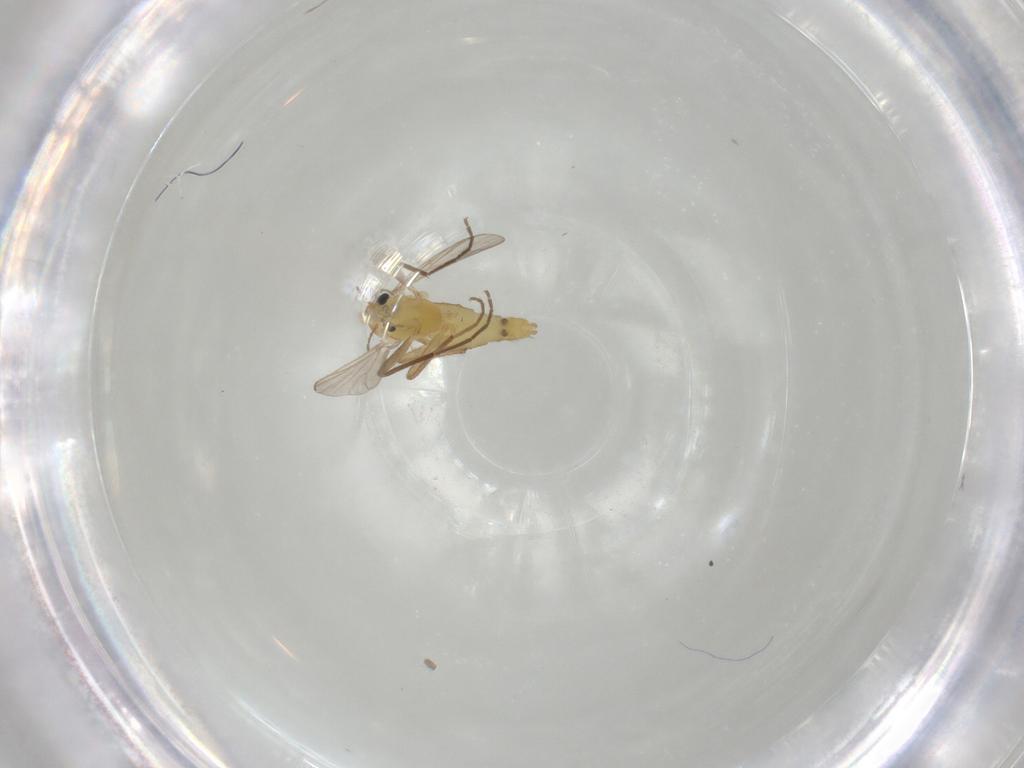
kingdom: Animalia
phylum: Arthropoda
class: Insecta
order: Diptera
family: Chironomidae
